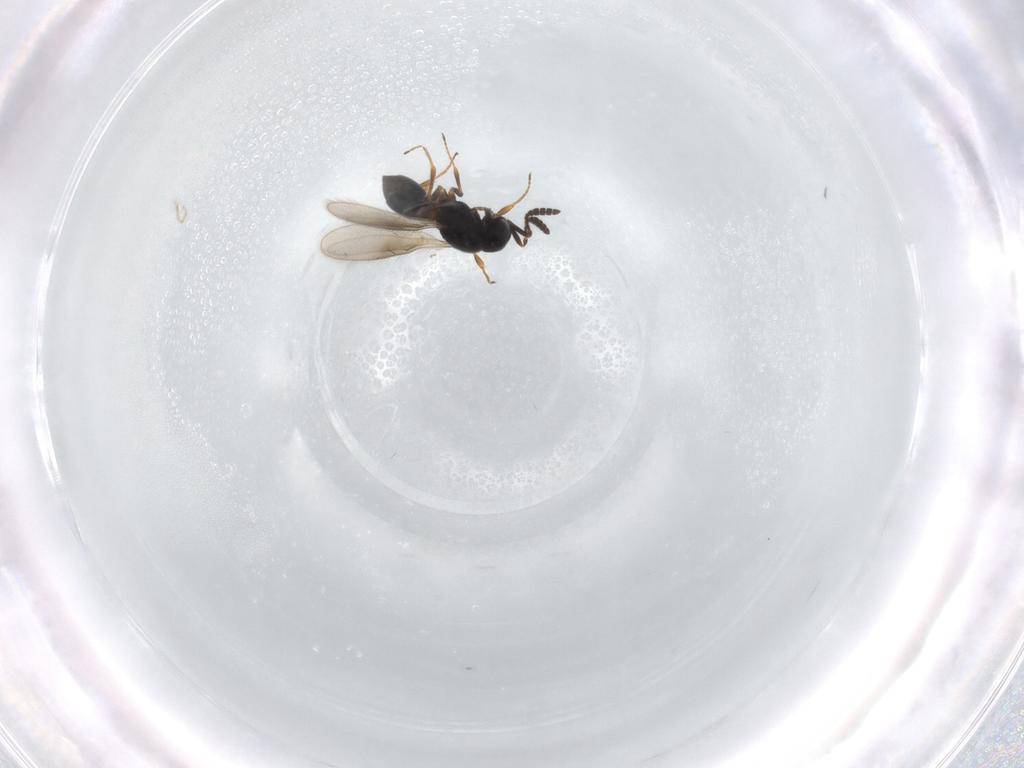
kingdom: Animalia
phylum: Arthropoda
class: Insecta
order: Hymenoptera
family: Scelionidae
